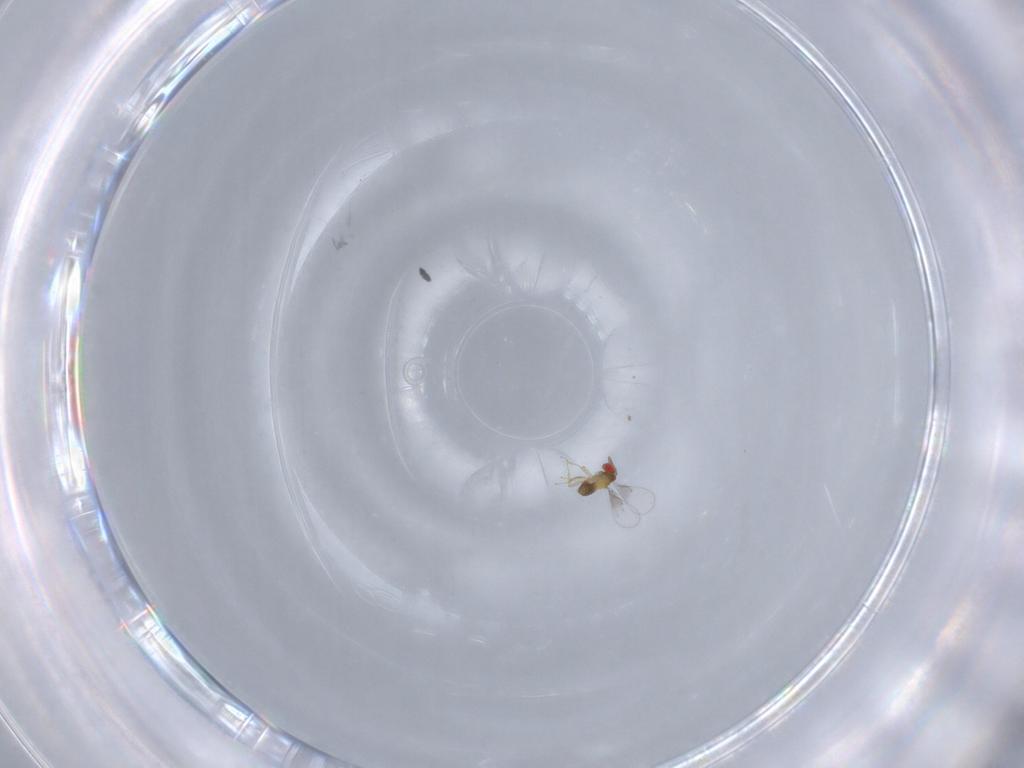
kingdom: Animalia
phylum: Arthropoda
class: Insecta
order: Hymenoptera
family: Trichogrammatidae
